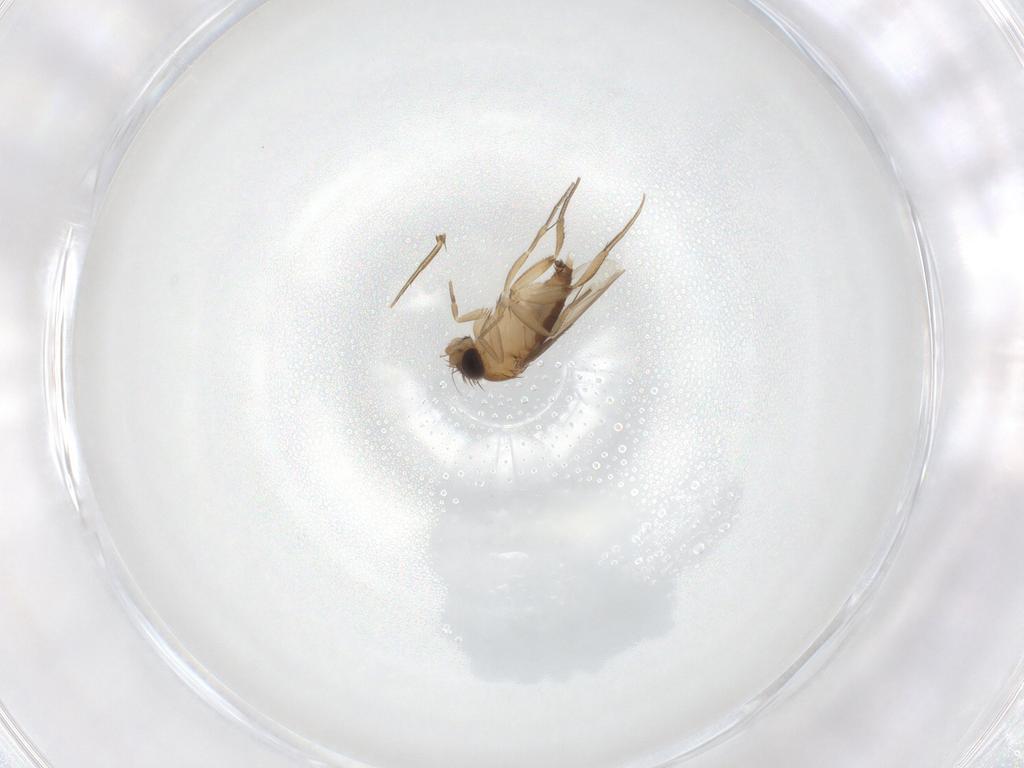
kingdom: Animalia
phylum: Arthropoda
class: Insecta
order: Diptera
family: Phoridae
